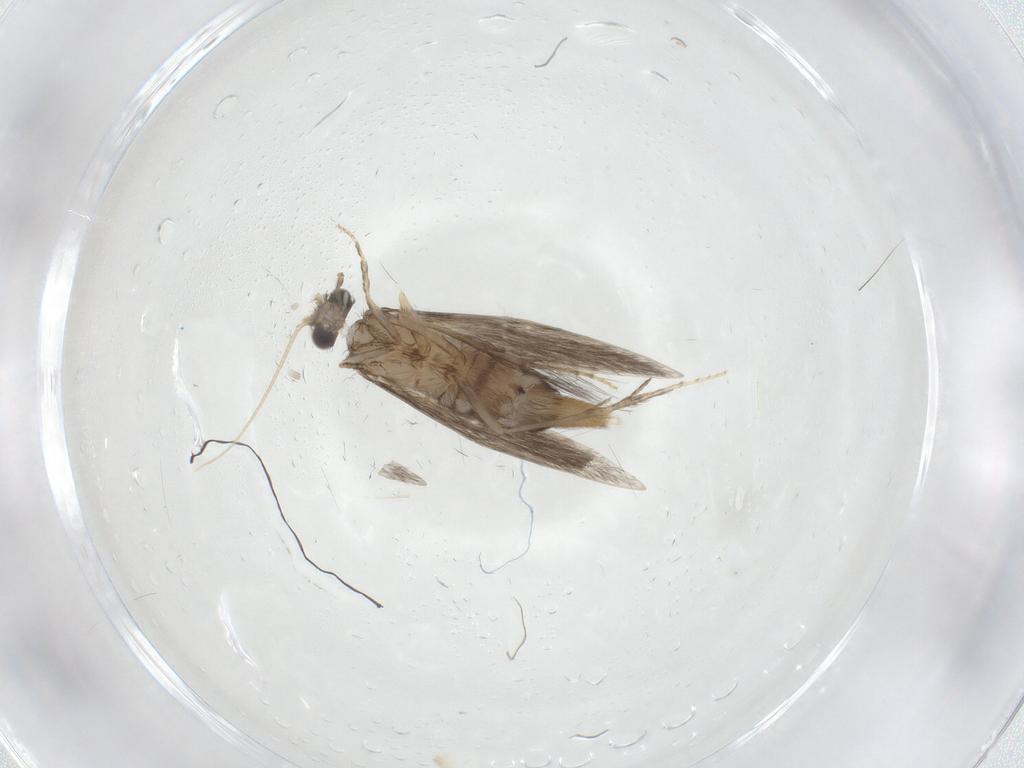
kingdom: Animalia
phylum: Arthropoda
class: Insecta
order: Trichoptera
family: Hydroptilidae
